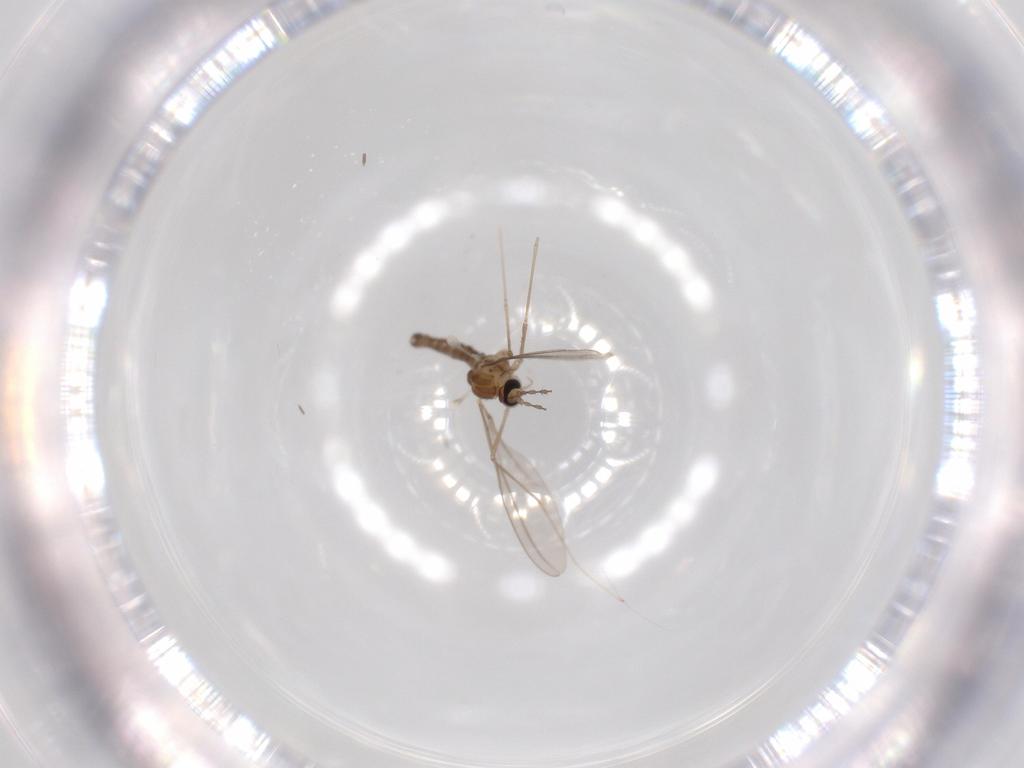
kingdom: Animalia
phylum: Arthropoda
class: Insecta
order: Diptera
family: Cecidomyiidae
